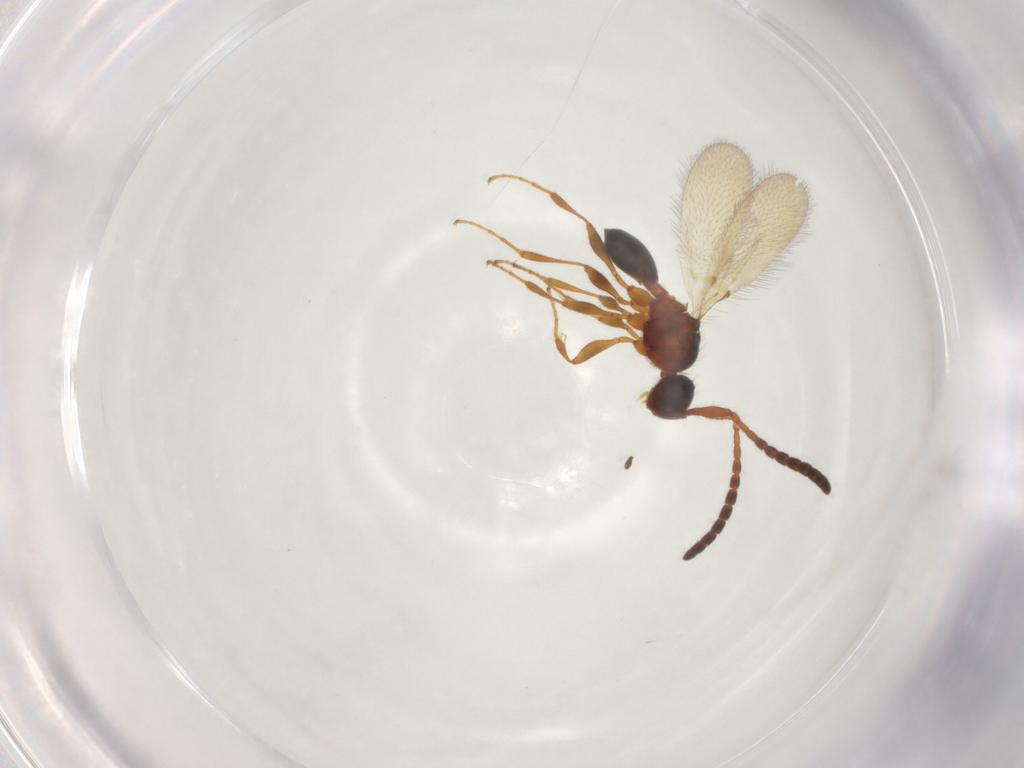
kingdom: Animalia
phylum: Arthropoda
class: Insecta
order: Hymenoptera
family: Diapriidae
